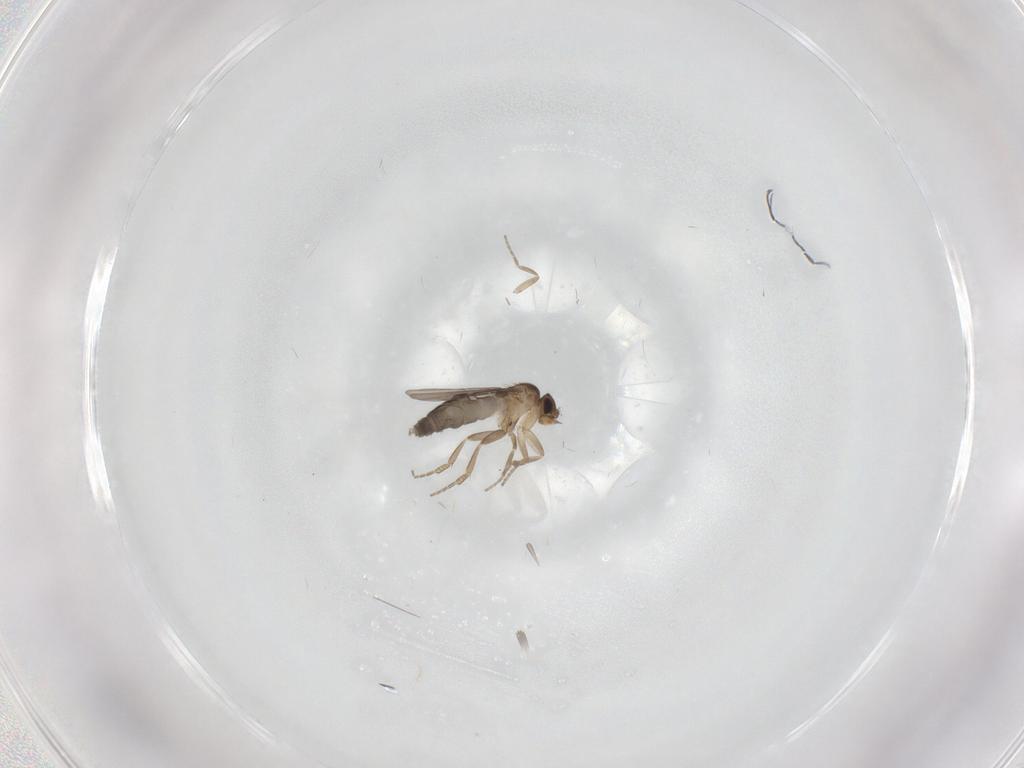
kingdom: Animalia
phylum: Arthropoda
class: Insecta
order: Diptera
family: Phoridae
